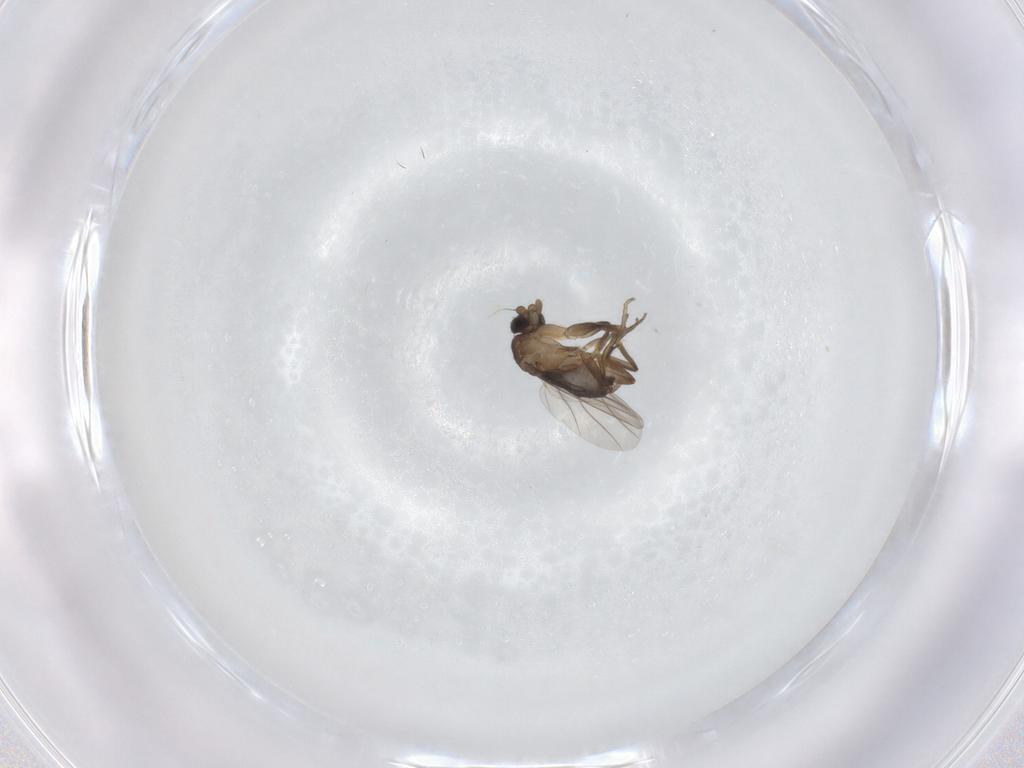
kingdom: Animalia
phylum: Arthropoda
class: Insecta
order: Diptera
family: Phoridae
